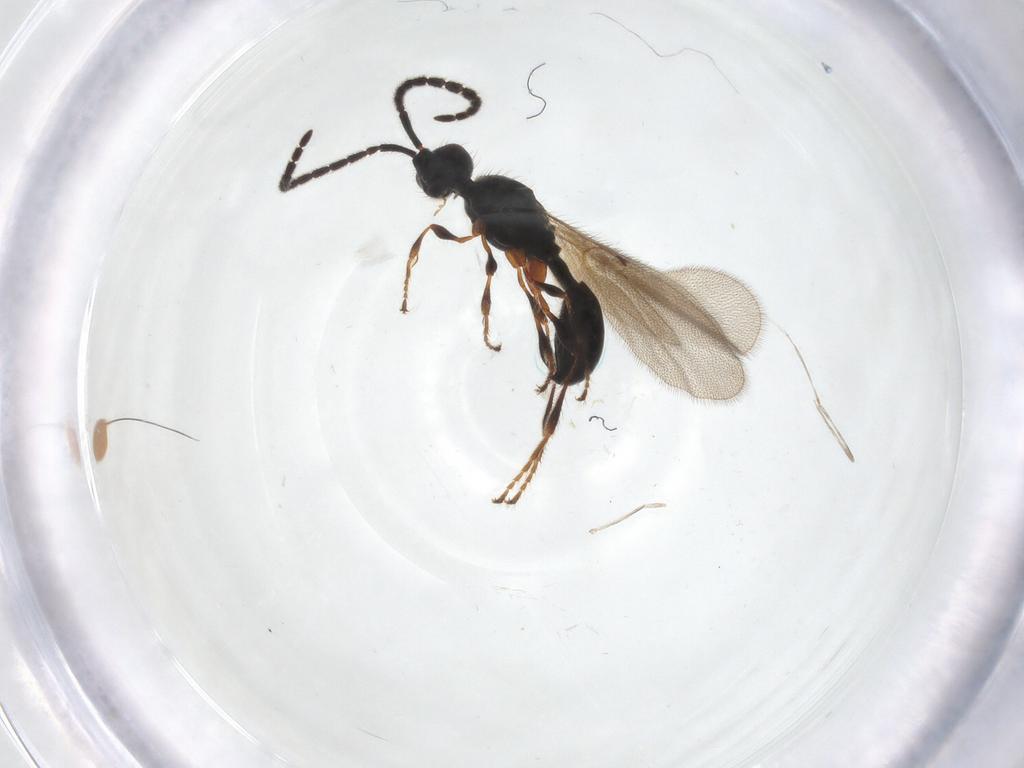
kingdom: Animalia
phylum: Arthropoda
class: Insecta
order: Hymenoptera
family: Diapriidae
